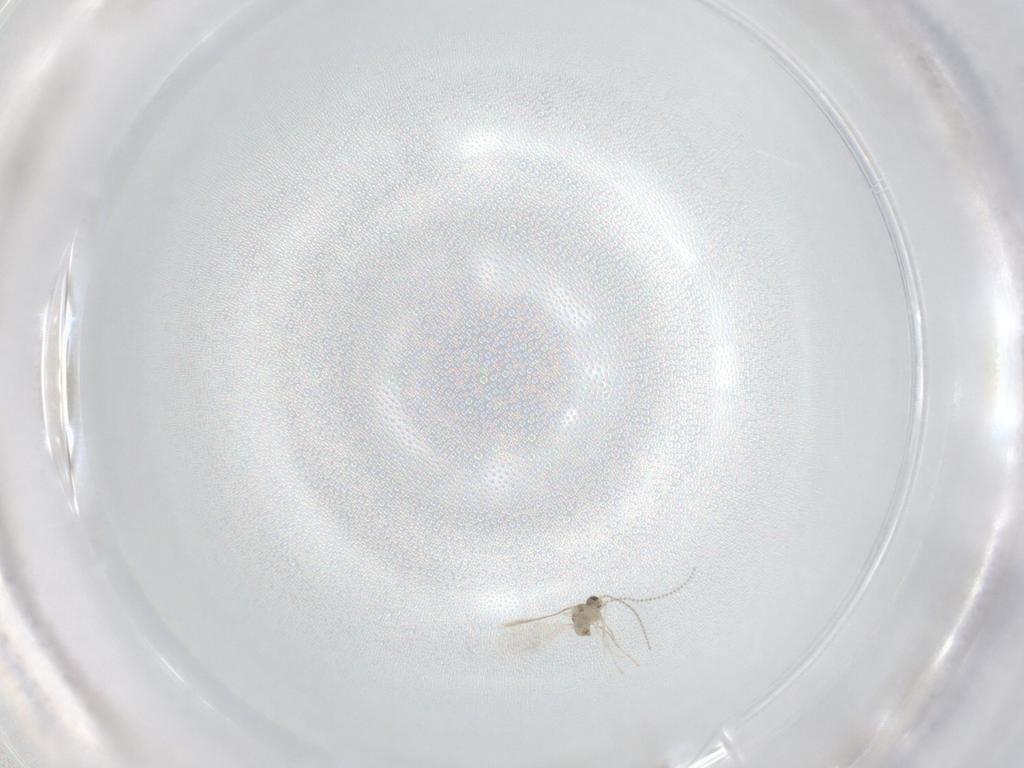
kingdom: Animalia
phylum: Arthropoda
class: Insecta
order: Diptera
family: Cecidomyiidae
